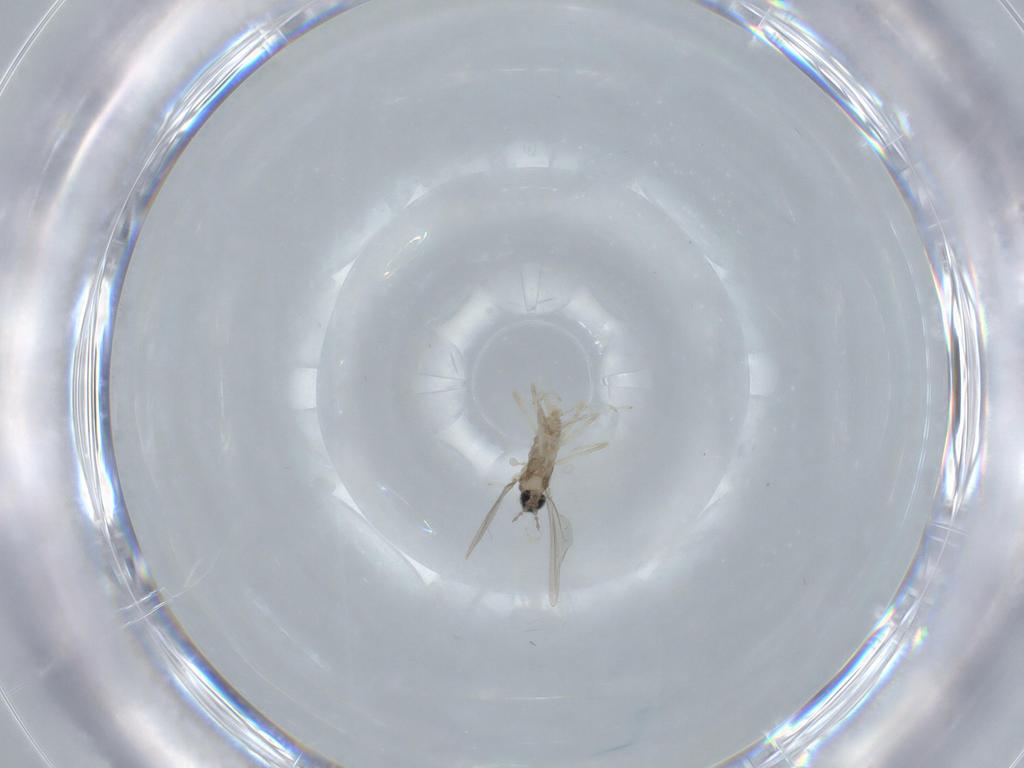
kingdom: Animalia
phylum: Arthropoda
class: Insecta
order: Diptera
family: Cecidomyiidae
